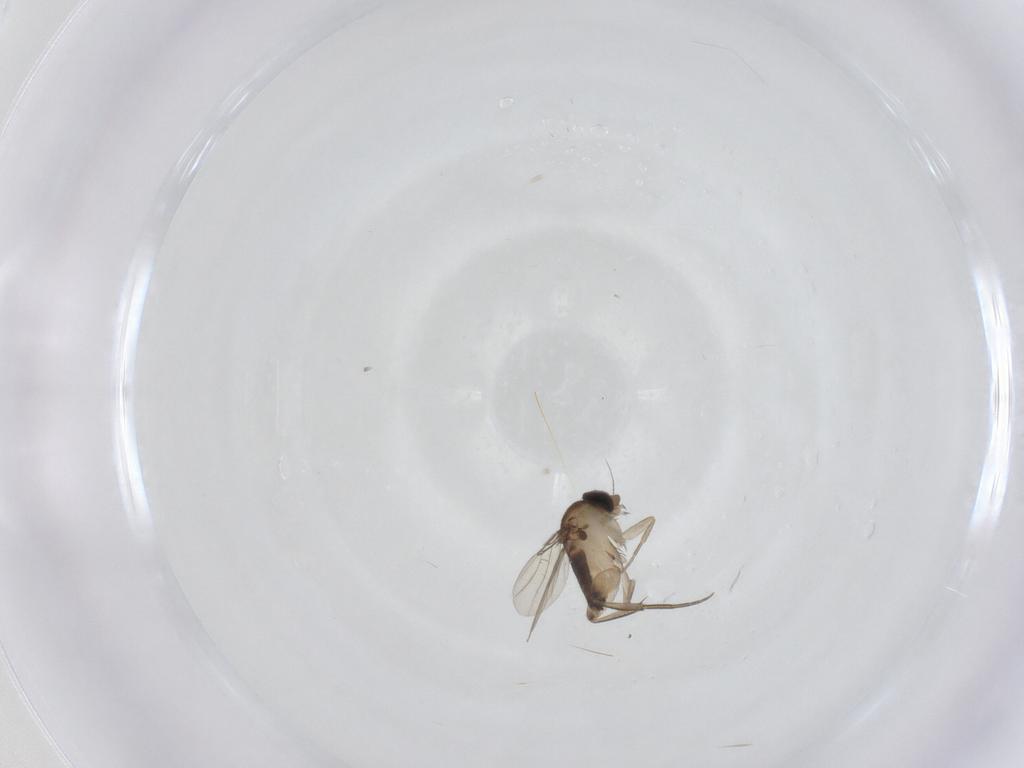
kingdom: Animalia
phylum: Arthropoda
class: Insecta
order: Diptera
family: Phoridae
